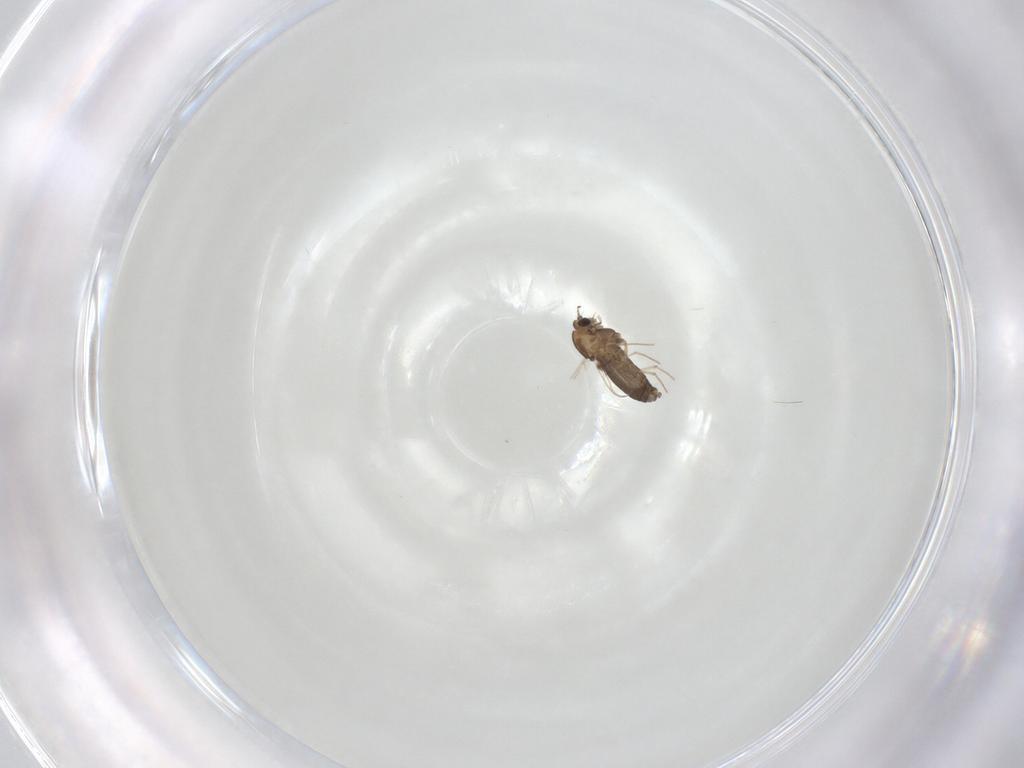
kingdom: Animalia
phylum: Arthropoda
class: Insecta
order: Diptera
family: Chironomidae
